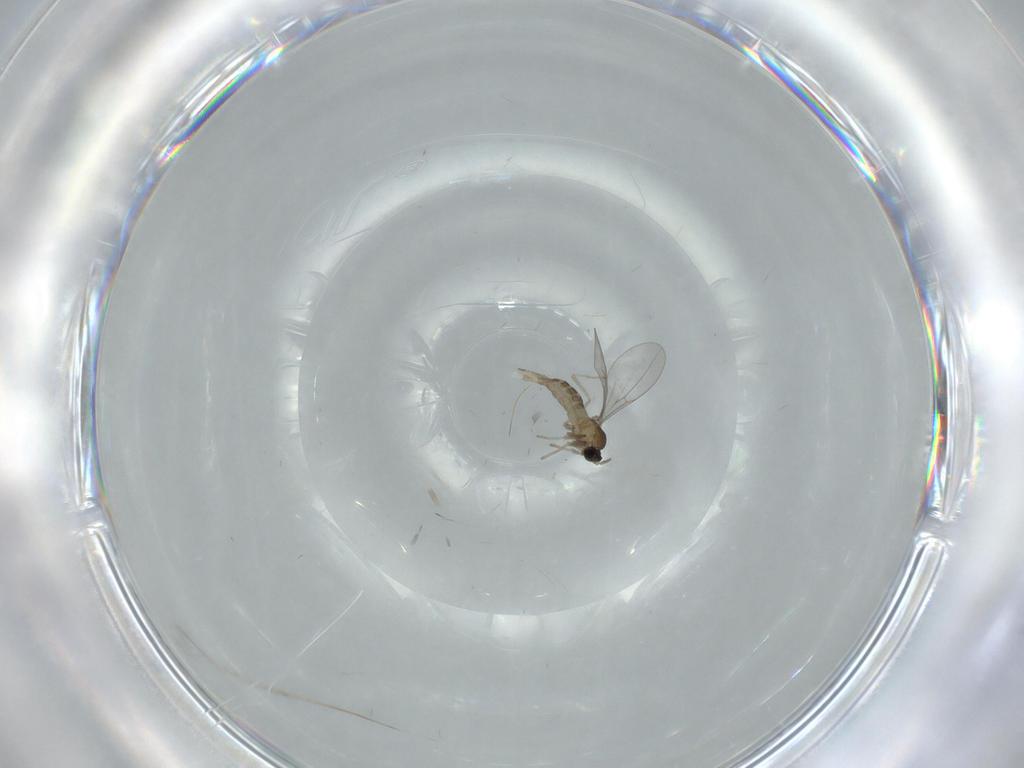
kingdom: Animalia
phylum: Arthropoda
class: Insecta
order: Diptera
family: Cecidomyiidae
